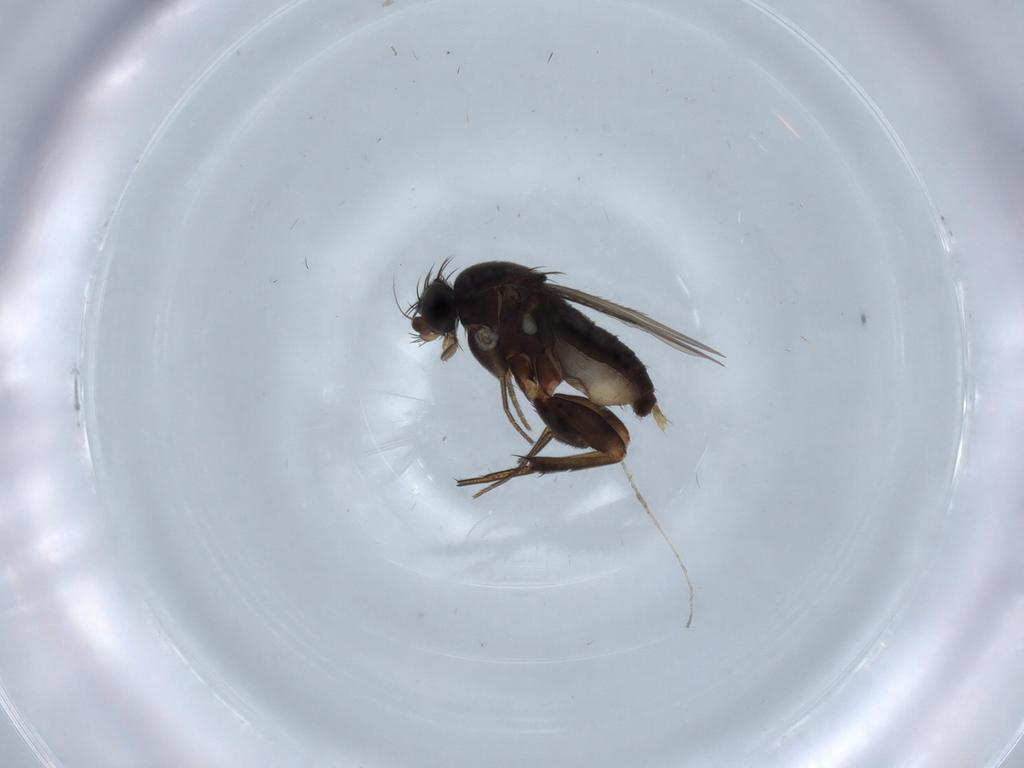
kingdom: Animalia
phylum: Arthropoda
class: Insecta
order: Diptera
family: Phoridae
